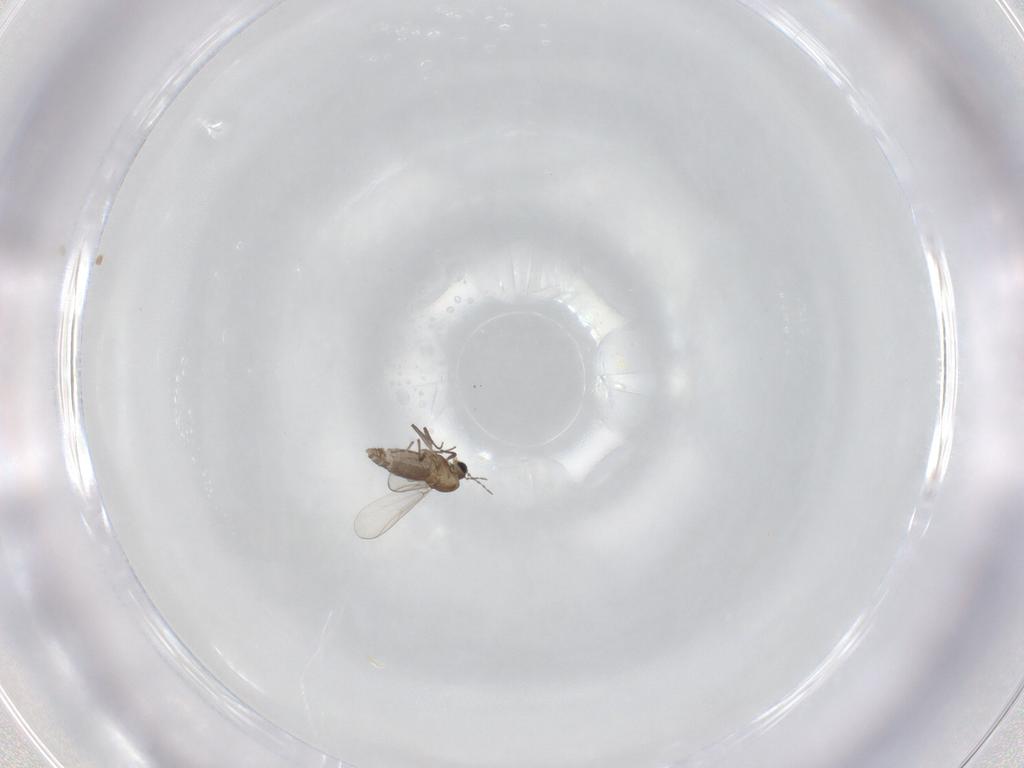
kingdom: Animalia
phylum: Arthropoda
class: Insecta
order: Diptera
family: Chironomidae
